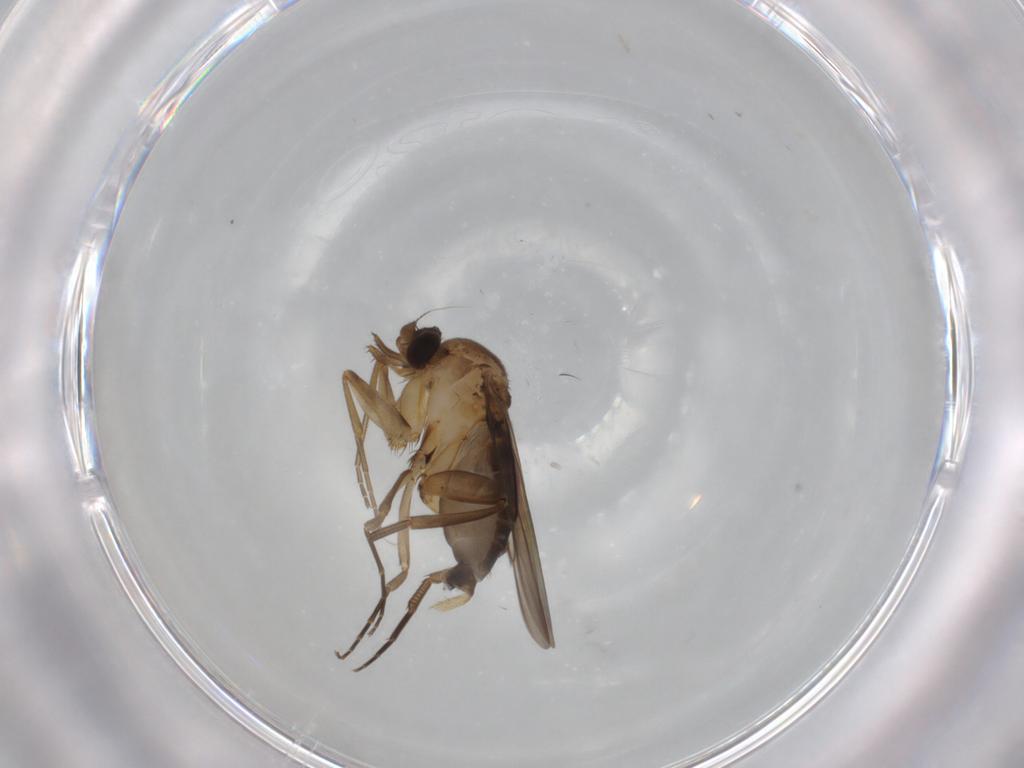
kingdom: Animalia
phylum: Arthropoda
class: Insecta
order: Diptera
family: Phoridae
